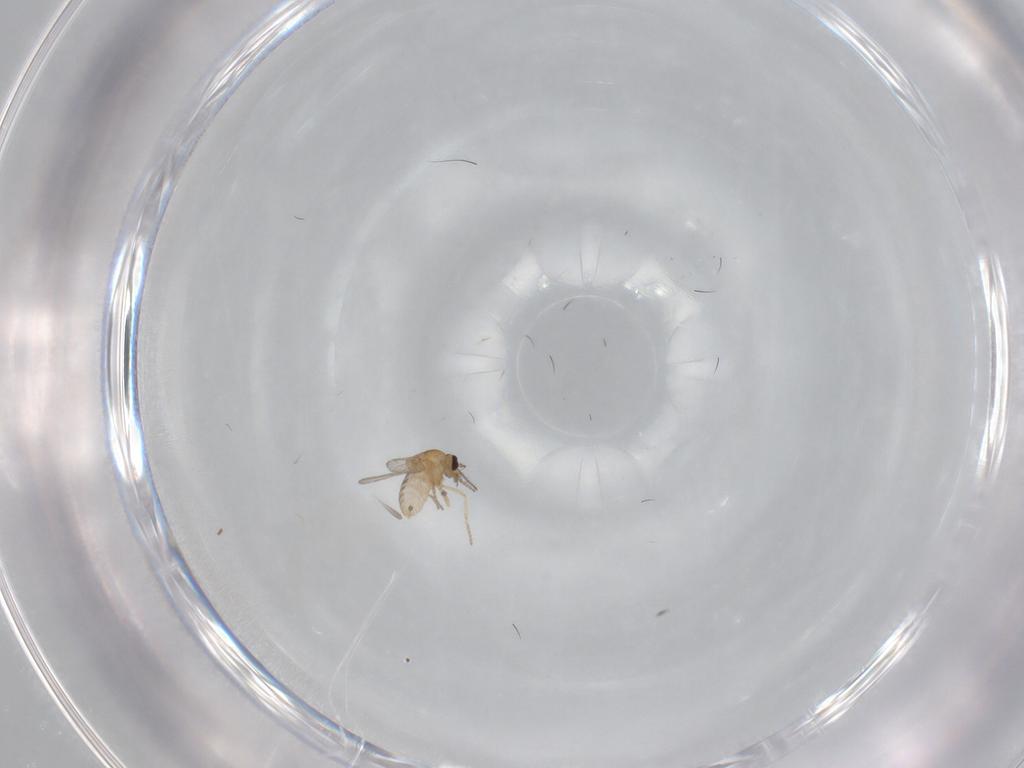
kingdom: Animalia
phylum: Arthropoda
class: Insecta
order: Diptera
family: Ceratopogonidae
